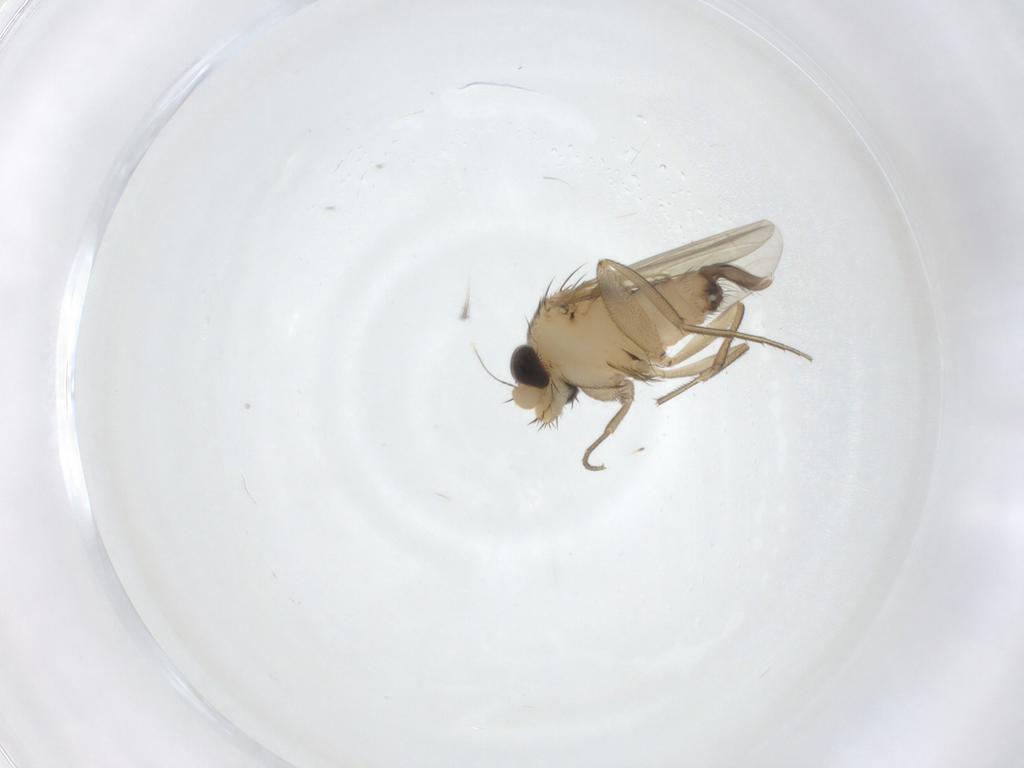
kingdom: Animalia
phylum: Arthropoda
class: Insecta
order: Diptera
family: Phoridae
